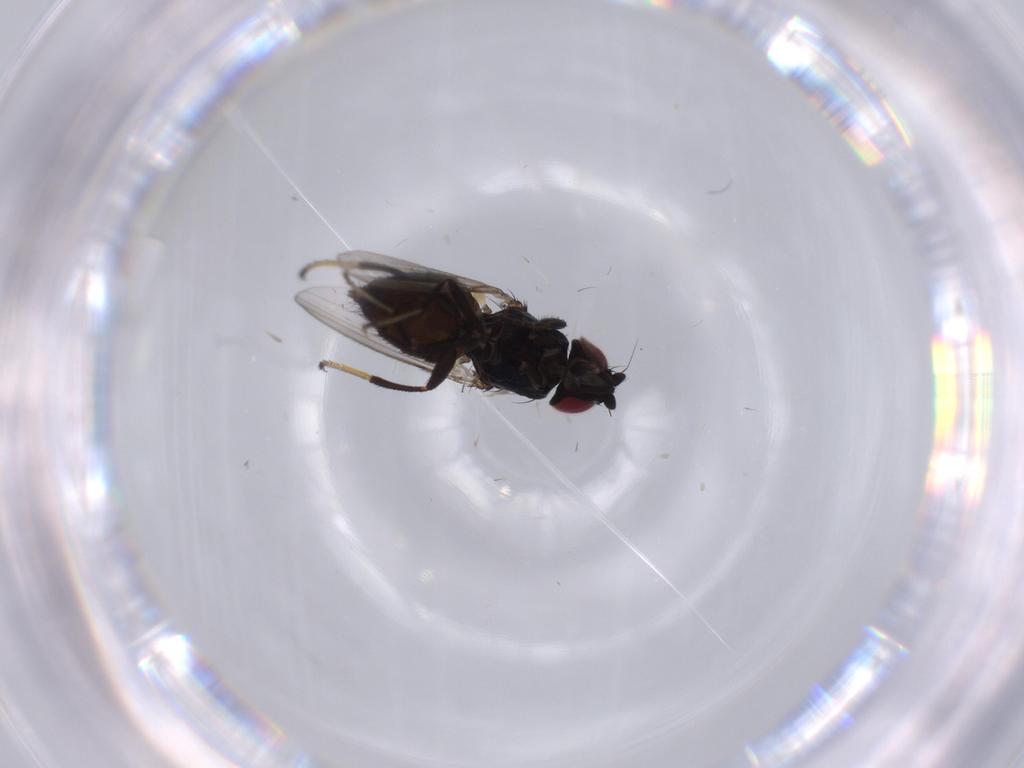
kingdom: Animalia
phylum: Arthropoda
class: Insecta
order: Diptera
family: Milichiidae
